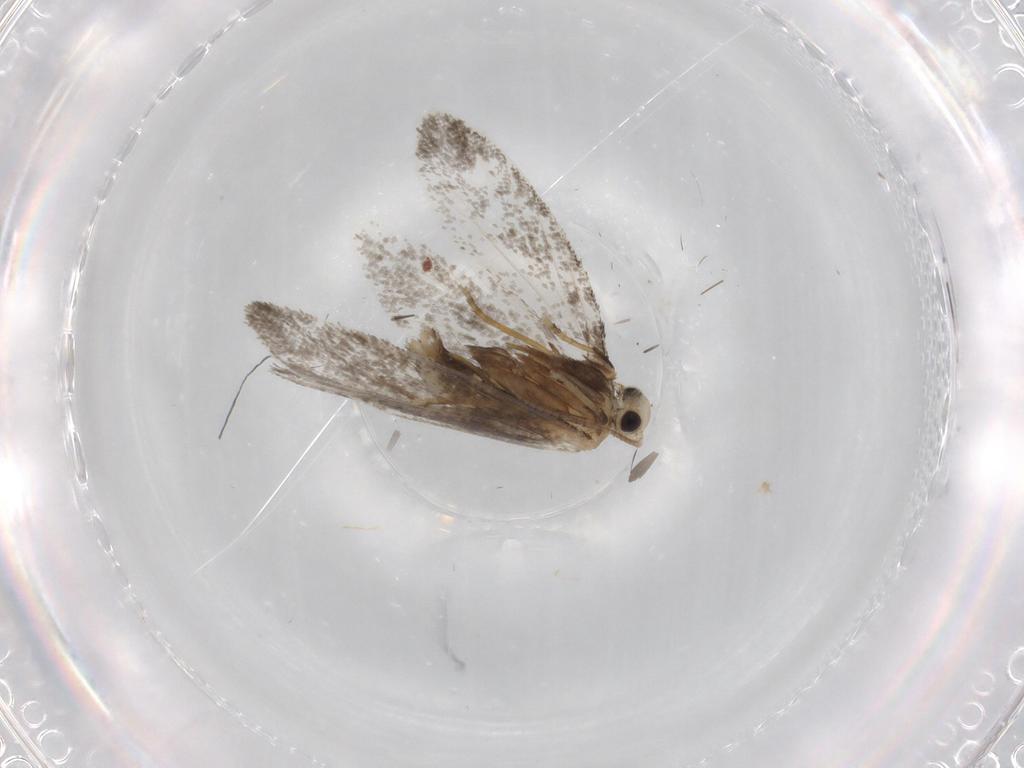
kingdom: Animalia
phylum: Arthropoda
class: Insecta
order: Lepidoptera
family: Psychidae
